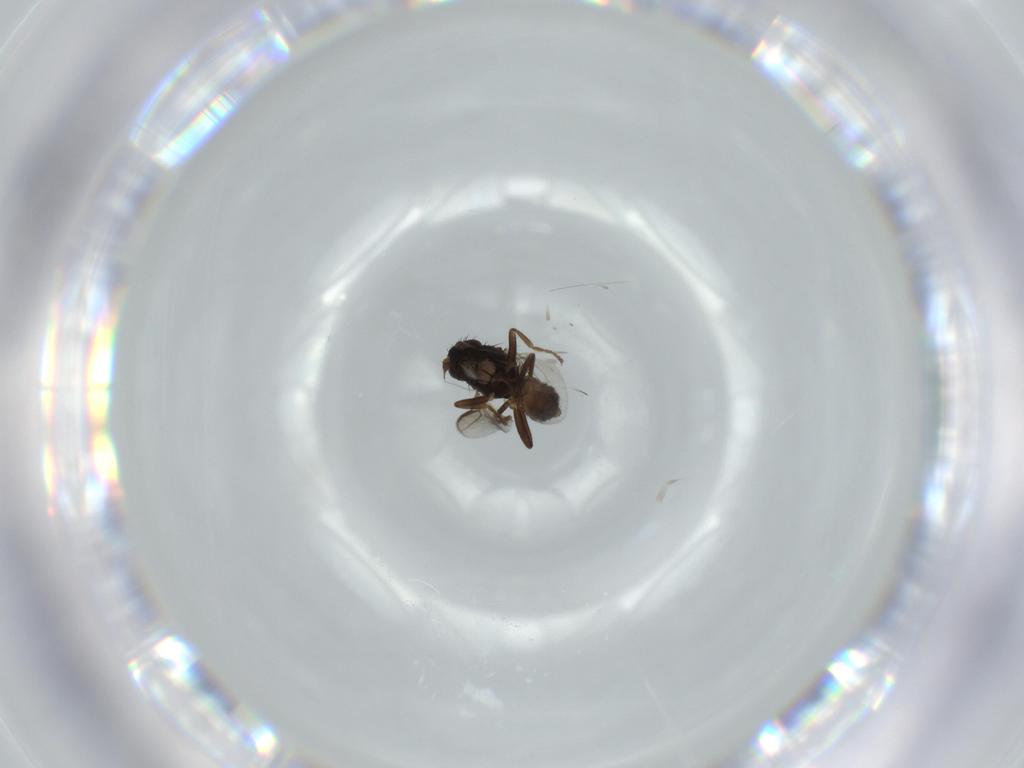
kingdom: Animalia
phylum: Arthropoda
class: Insecta
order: Diptera
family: Sphaeroceridae
